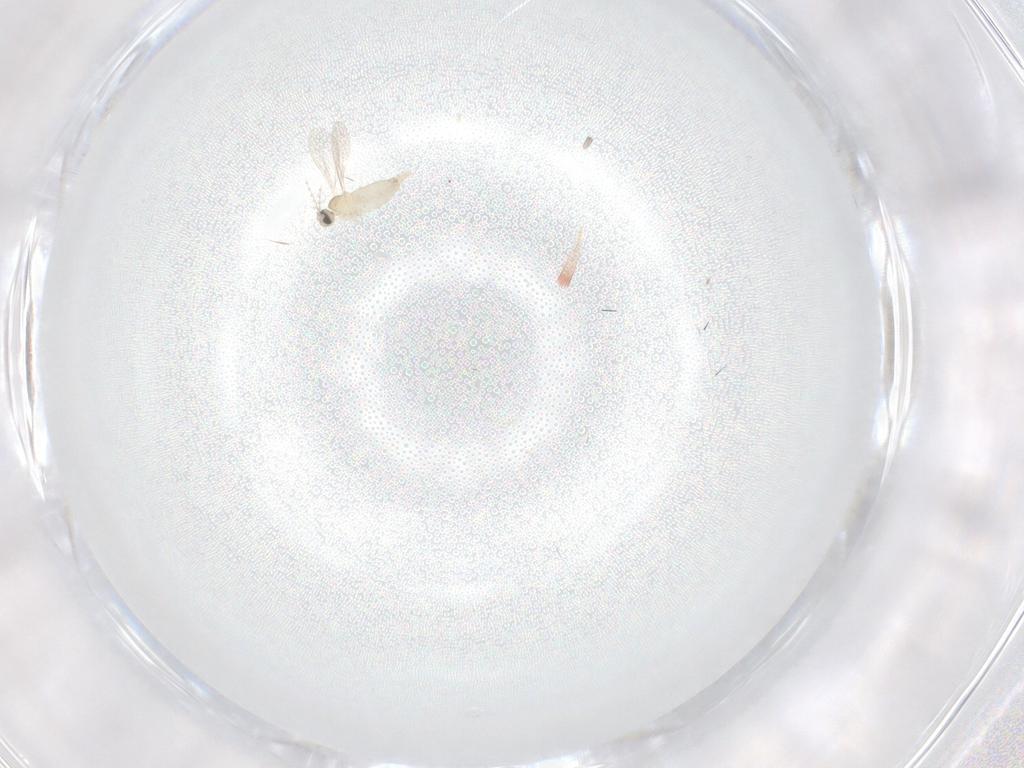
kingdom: Animalia
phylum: Arthropoda
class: Insecta
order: Diptera
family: Cecidomyiidae
